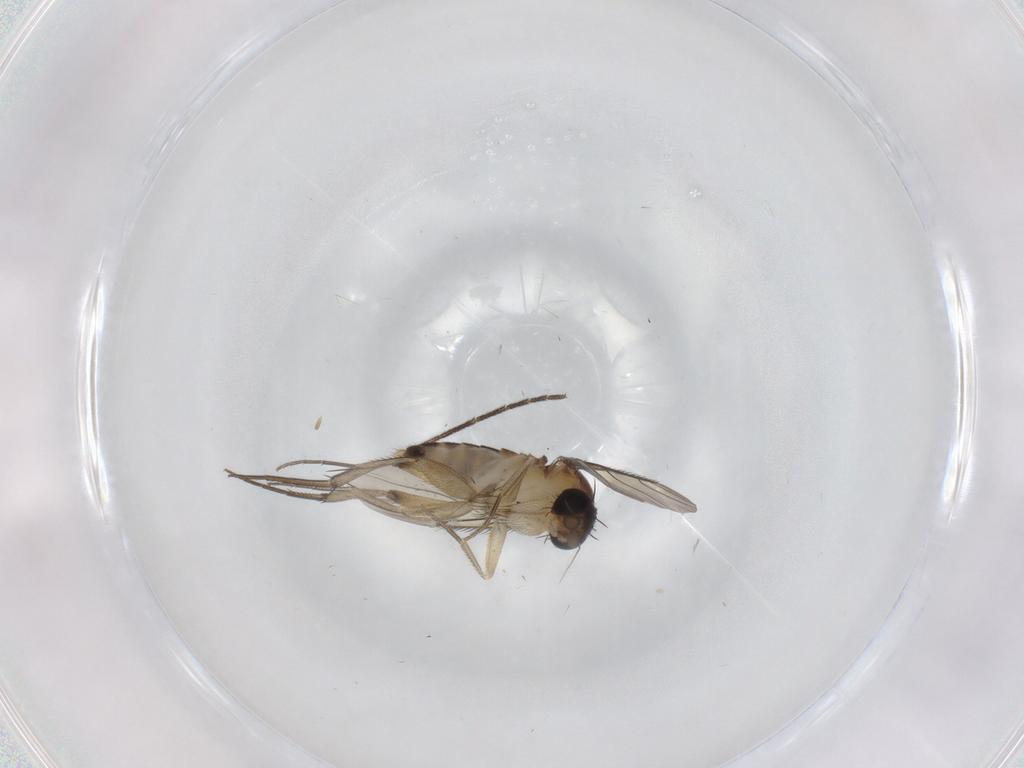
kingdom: Animalia
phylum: Arthropoda
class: Insecta
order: Diptera
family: Phoridae
